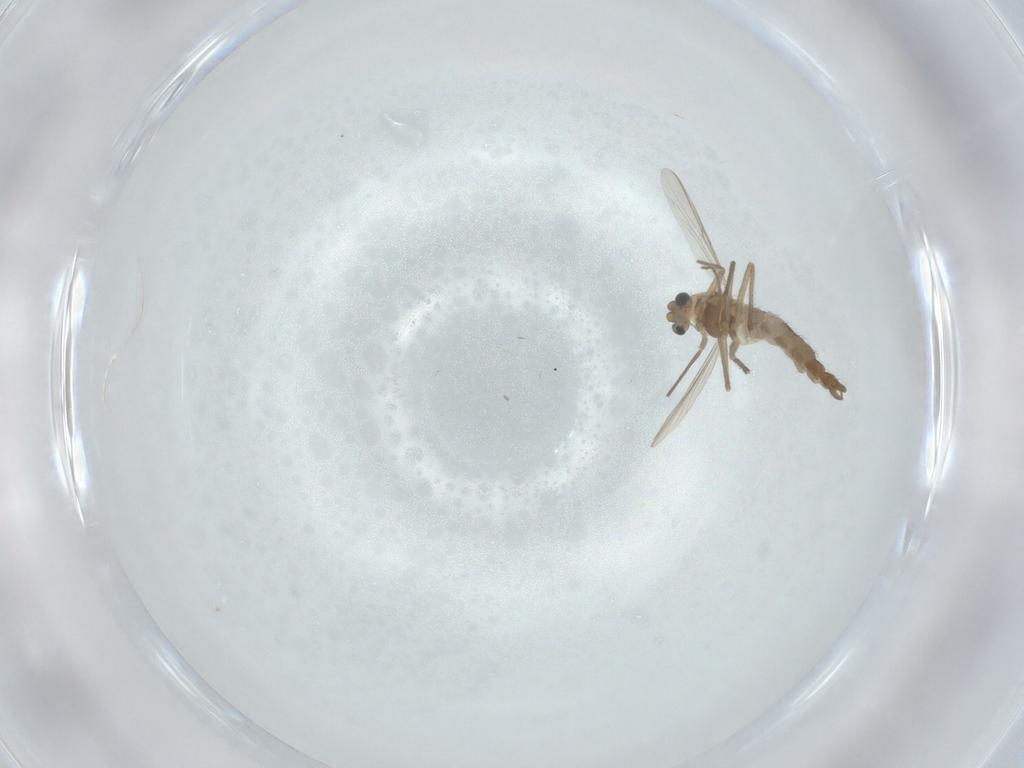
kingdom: Animalia
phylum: Arthropoda
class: Insecta
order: Diptera
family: Chironomidae
